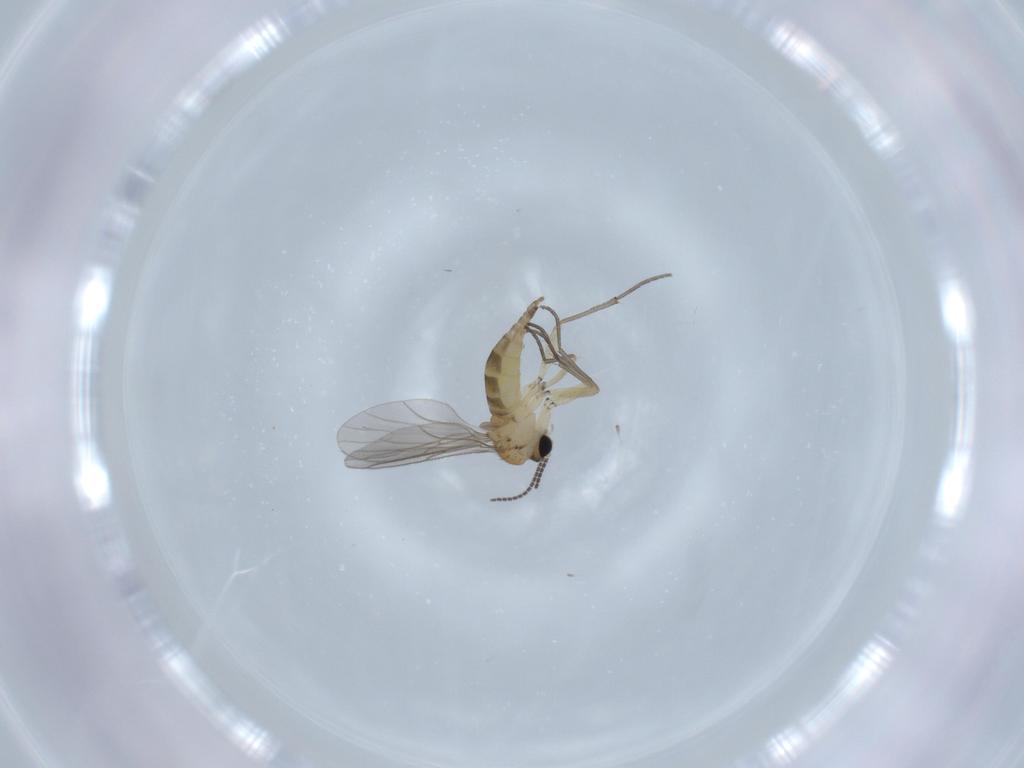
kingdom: Animalia
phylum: Arthropoda
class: Insecta
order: Diptera
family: Sciaridae
